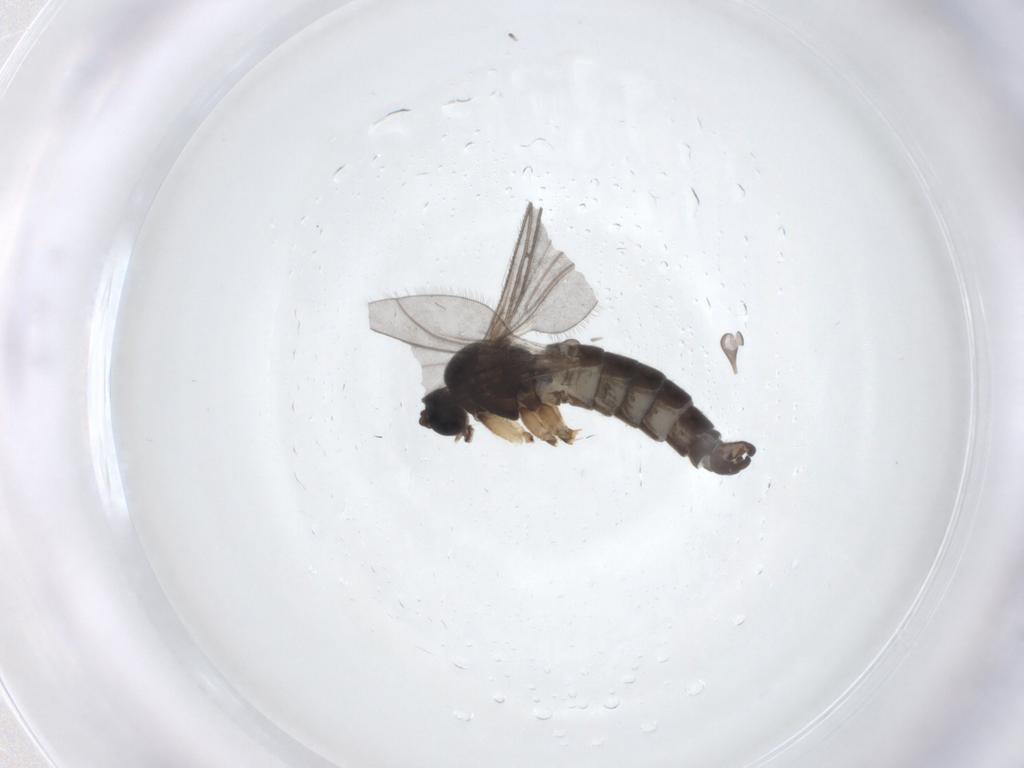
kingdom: Animalia
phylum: Arthropoda
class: Insecta
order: Diptera
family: Sciaridae
